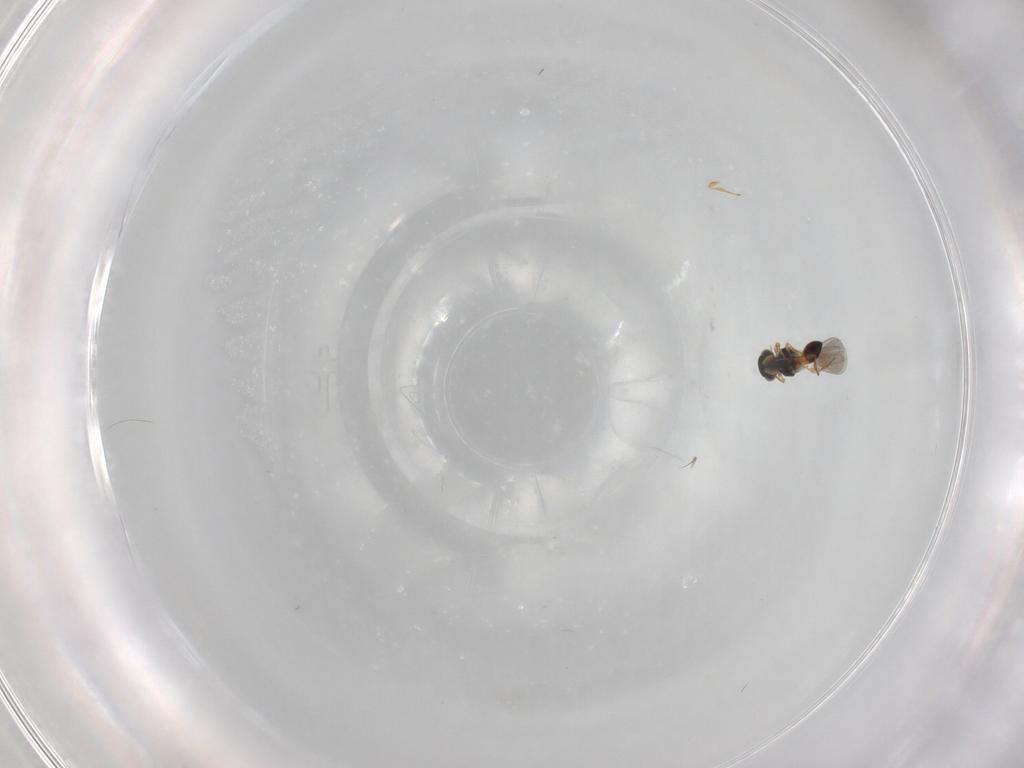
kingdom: Animalia
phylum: Arthropoda
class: Insecta
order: Hymenoptera
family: Platygastridae
